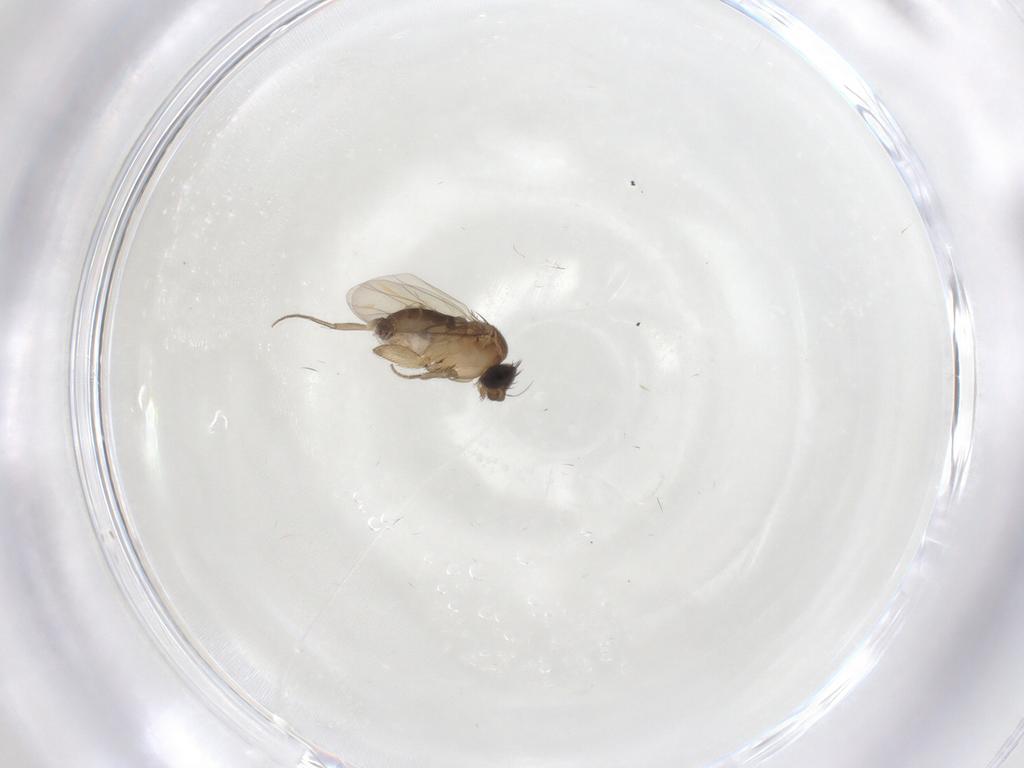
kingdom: Animalia
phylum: Arthropoda
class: Insecta
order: Diptera
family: Phoridae
